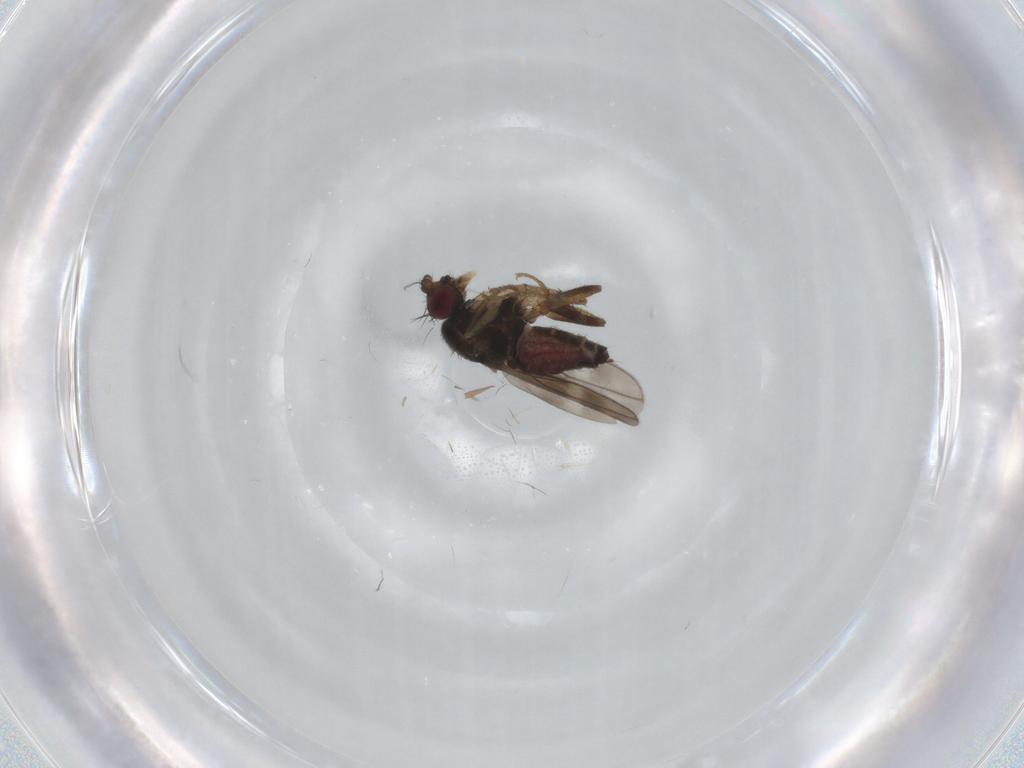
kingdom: Animalia
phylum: Arthropoda
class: Insecta
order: Diptera
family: Sphaeroceridae
